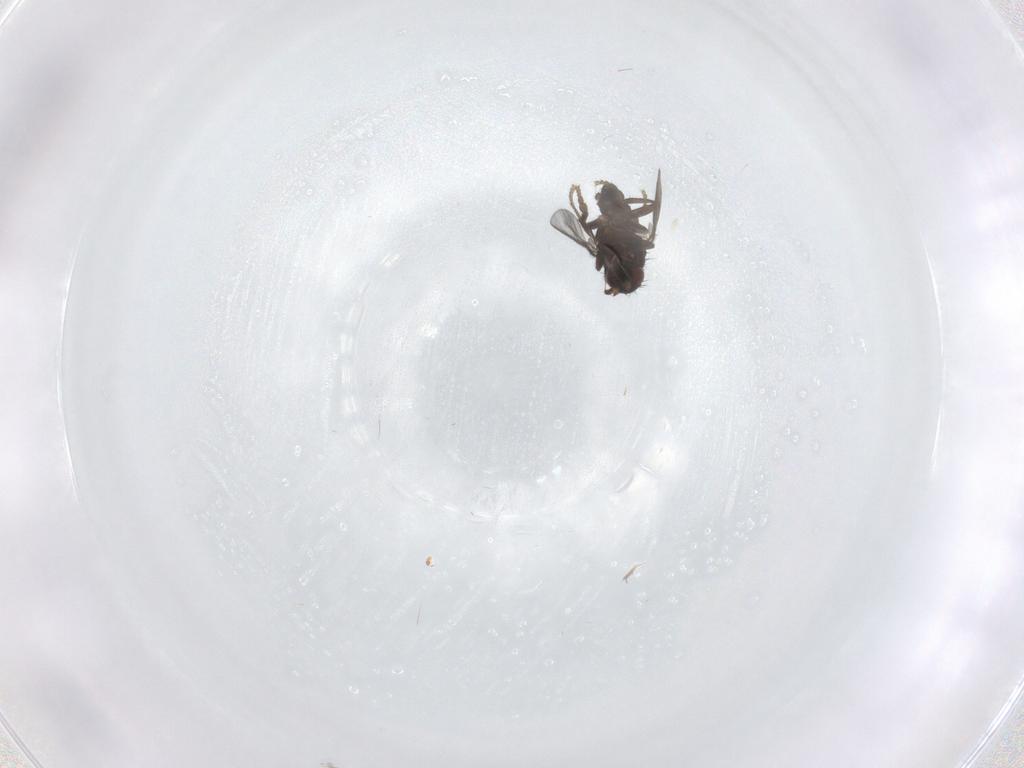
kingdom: Animalia
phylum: Arthropoda
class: Insecta
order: Diptera
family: Sphaeroceridae
